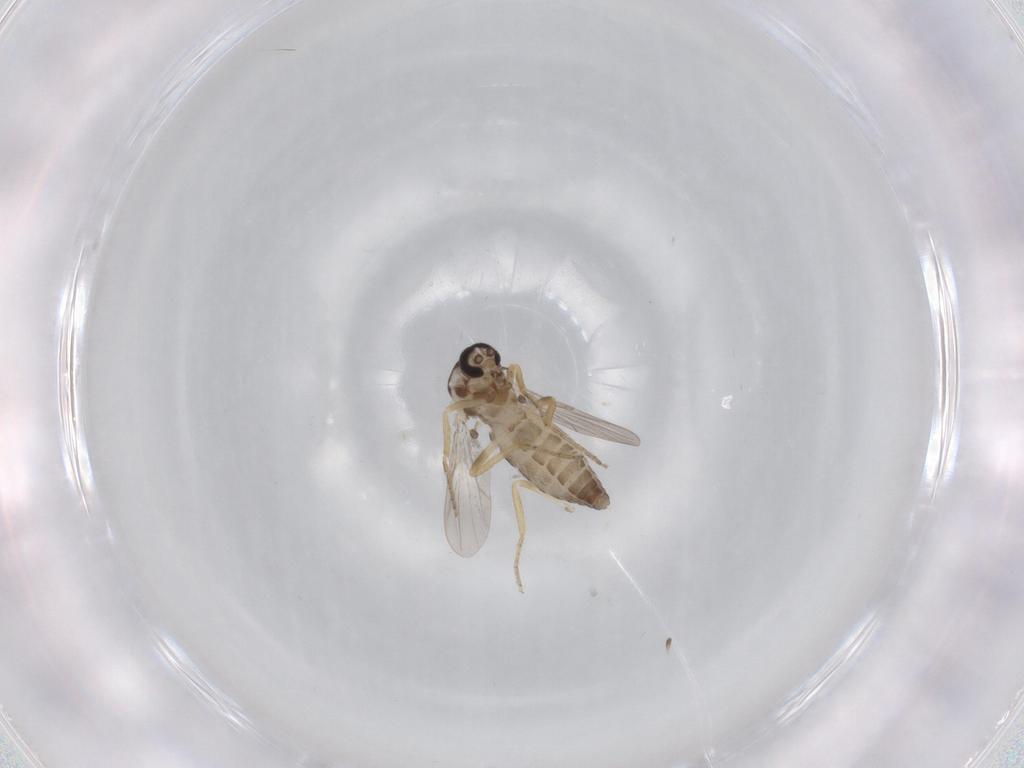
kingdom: Animalia
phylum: Arthropoda
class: Insecta
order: Diptera
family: Ceratopogonidae
